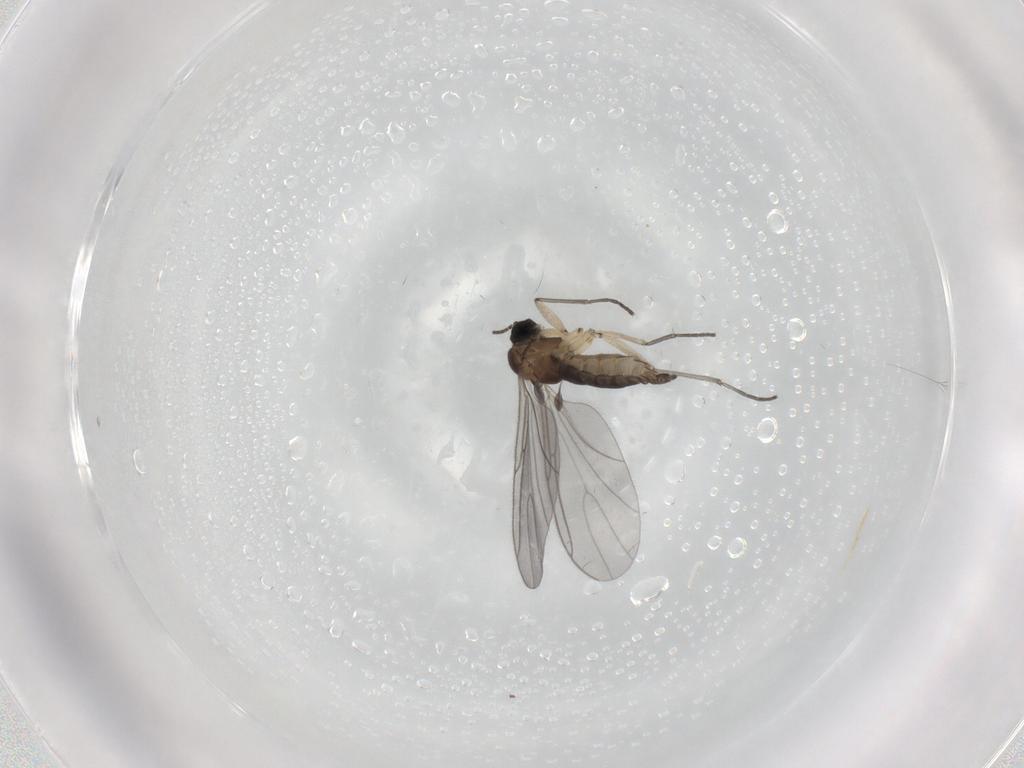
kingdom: Animalia
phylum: Arthropoda
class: Insecta
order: Diptera
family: Sciaridae
